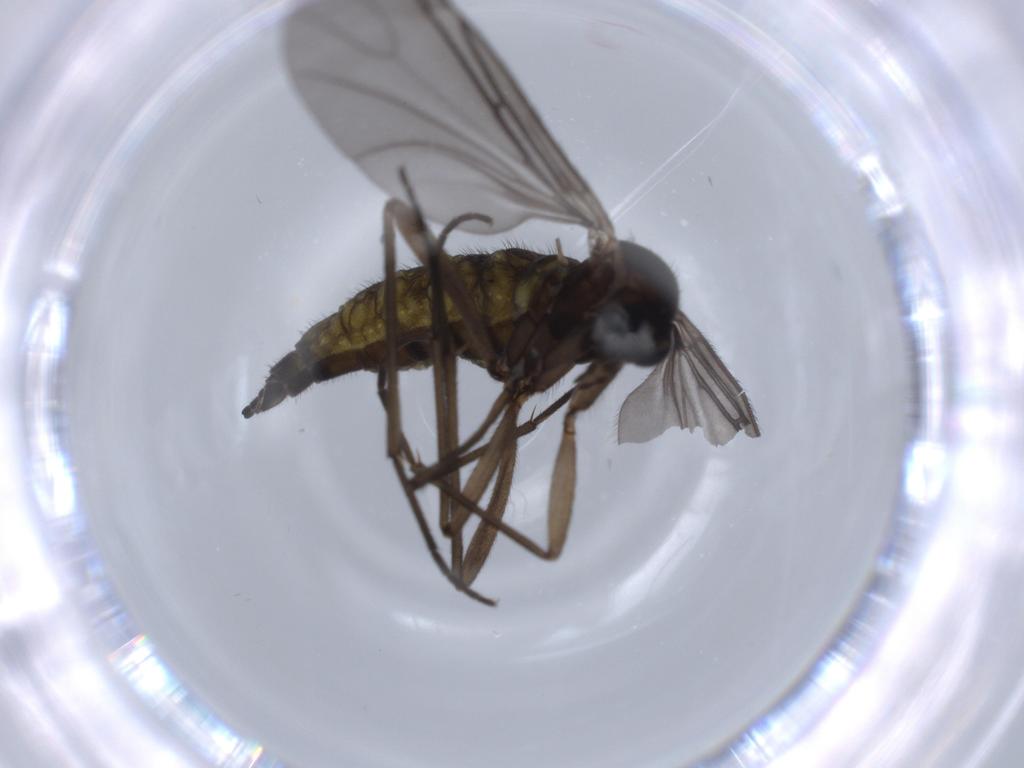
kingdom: Animalia
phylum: Arthropoda
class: Insecta
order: Diptera
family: Sciaridae
